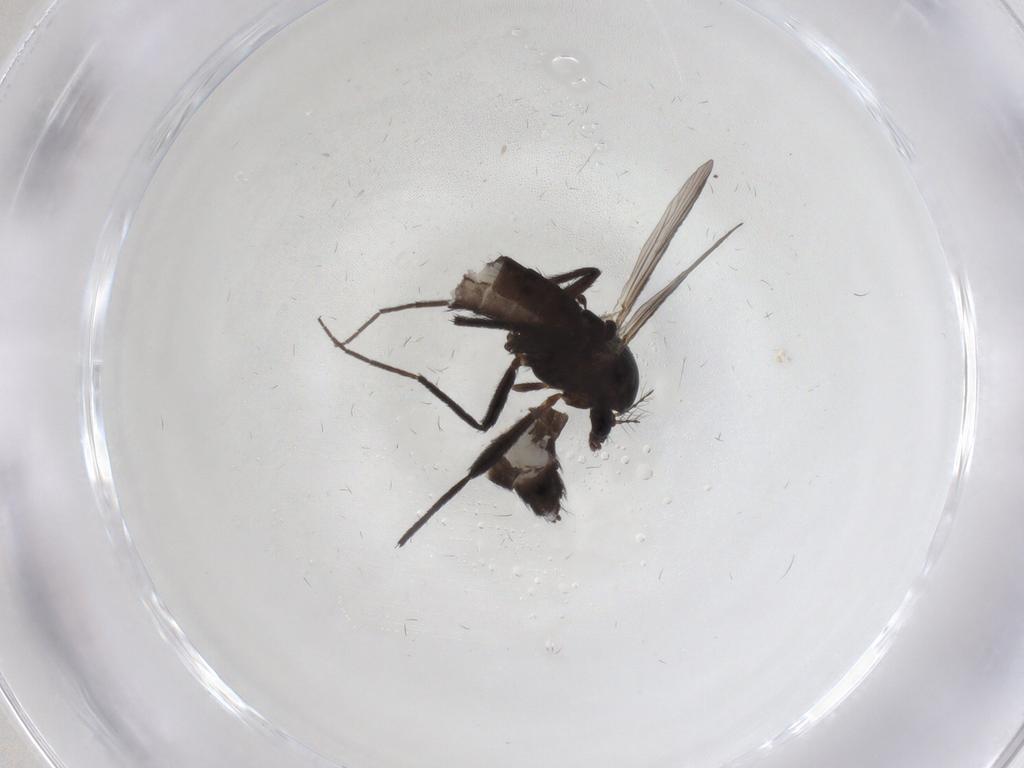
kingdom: Animalia
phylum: Arthropoda
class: Insecta
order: Diptera
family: Chironomidae
